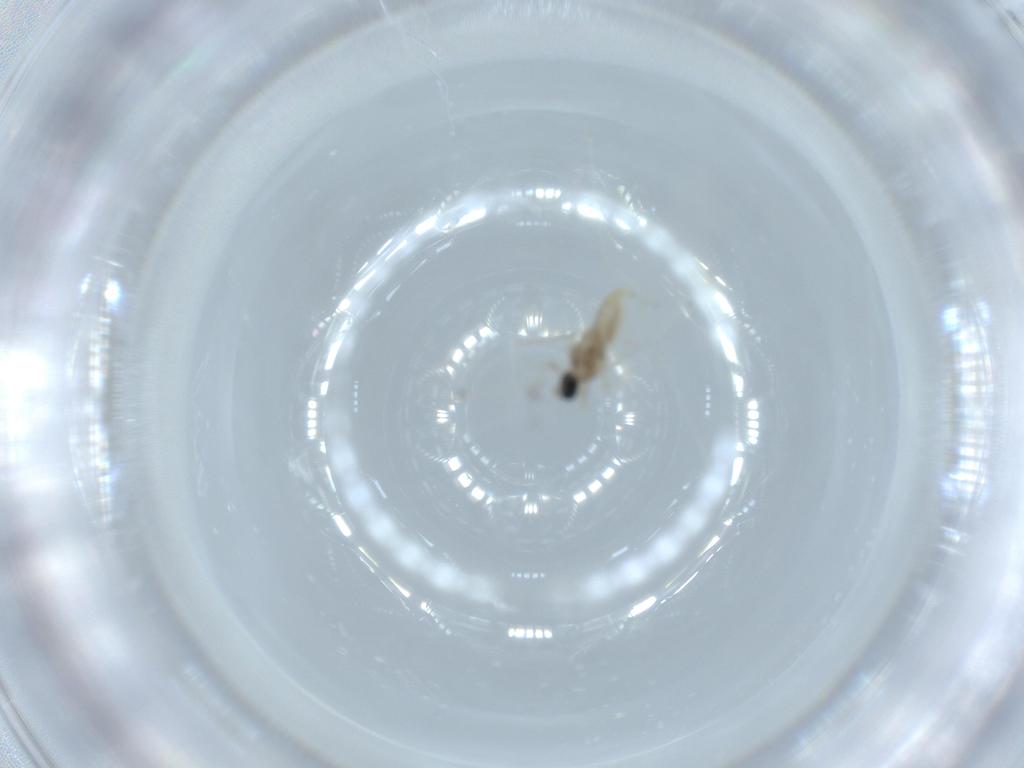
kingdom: Animalia
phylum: Arthropoda
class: Insecta
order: Diptera
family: Cecidomyiidae
